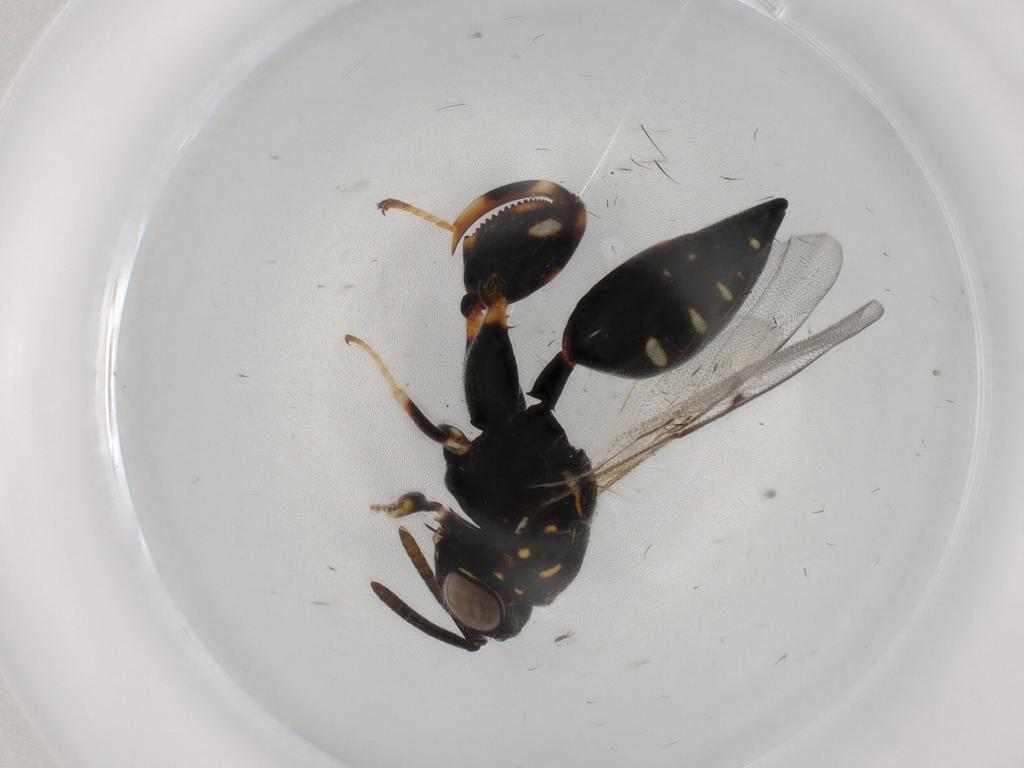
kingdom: Animalia
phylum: Arthropoda
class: Insecta
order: Hymenoptera
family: Chalcididae
